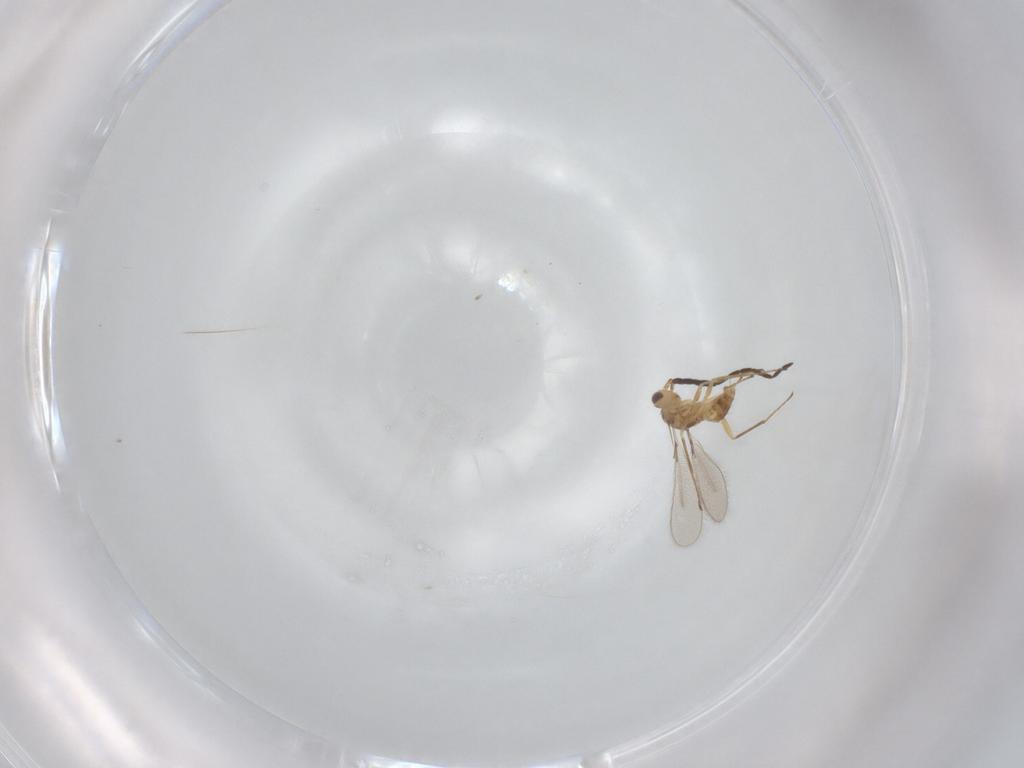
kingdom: Animalia
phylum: Arthropoda
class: Insecta
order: Hymenoptera
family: Mymaridae
